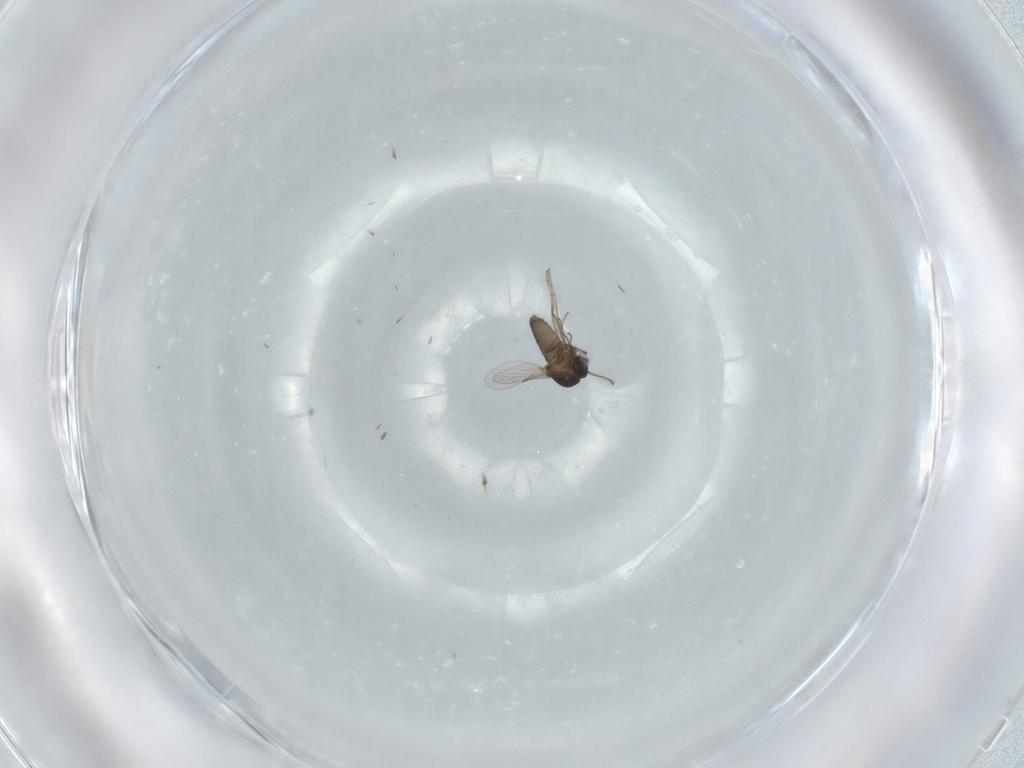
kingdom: Animalia
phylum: Arthropoda
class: Insecta
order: Diptera
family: Ceratopogonidae
